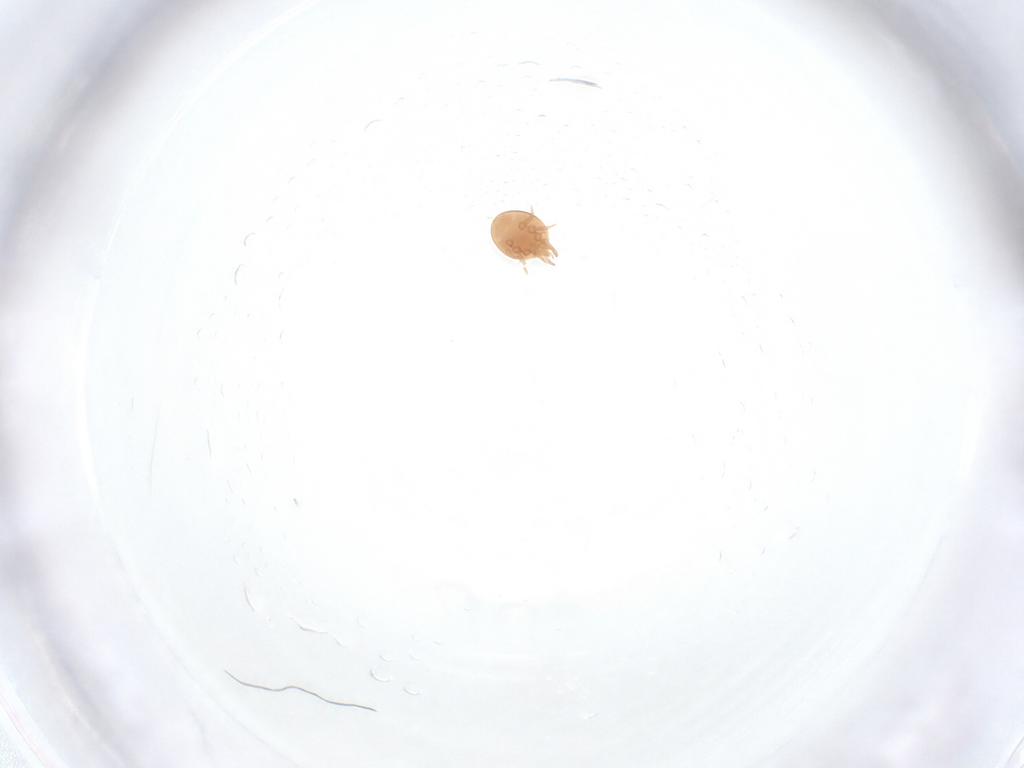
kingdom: Animalia
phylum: Arthropoda
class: Arachnida
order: Mesostigmata
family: Trematuridae
